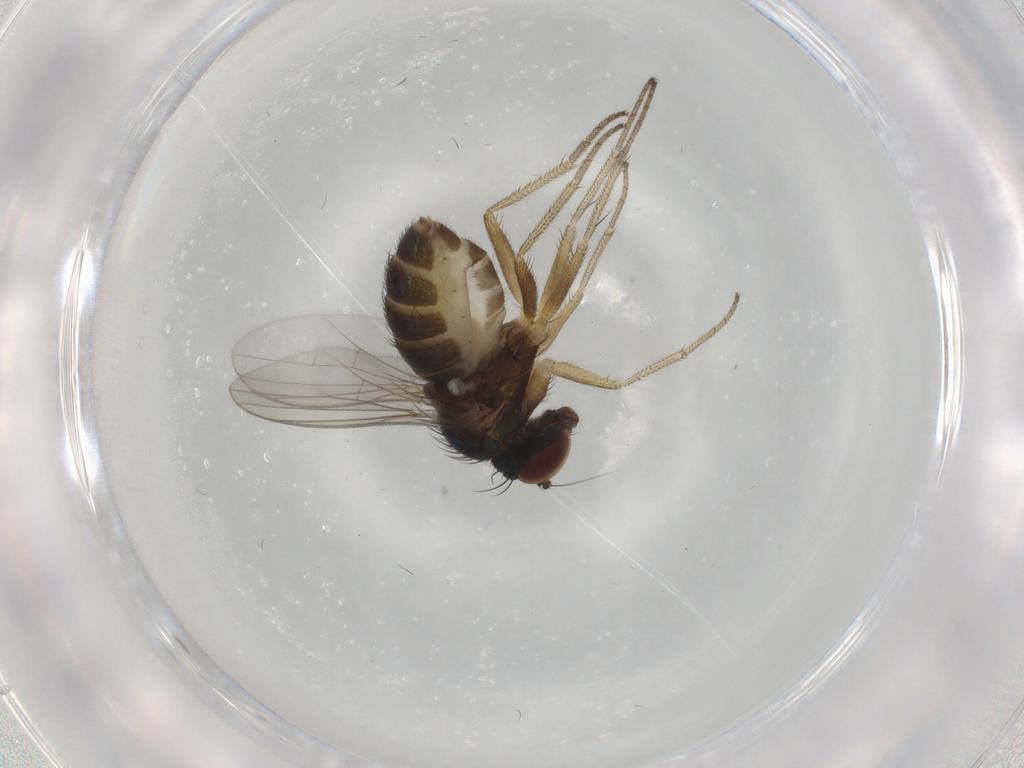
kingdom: Animalia
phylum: Arthropoda
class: Insecta
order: Diptera
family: Dolichopodidae
